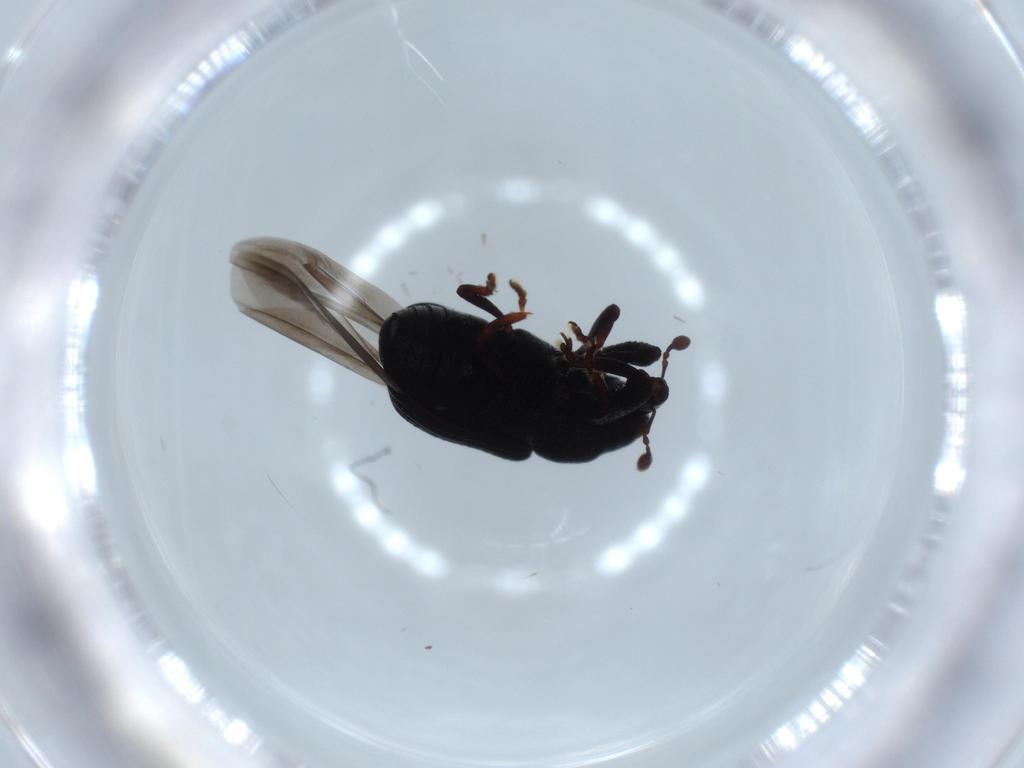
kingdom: Animalia
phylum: Arthropoda
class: Insecta
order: Coleoptera
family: Curculionidae
